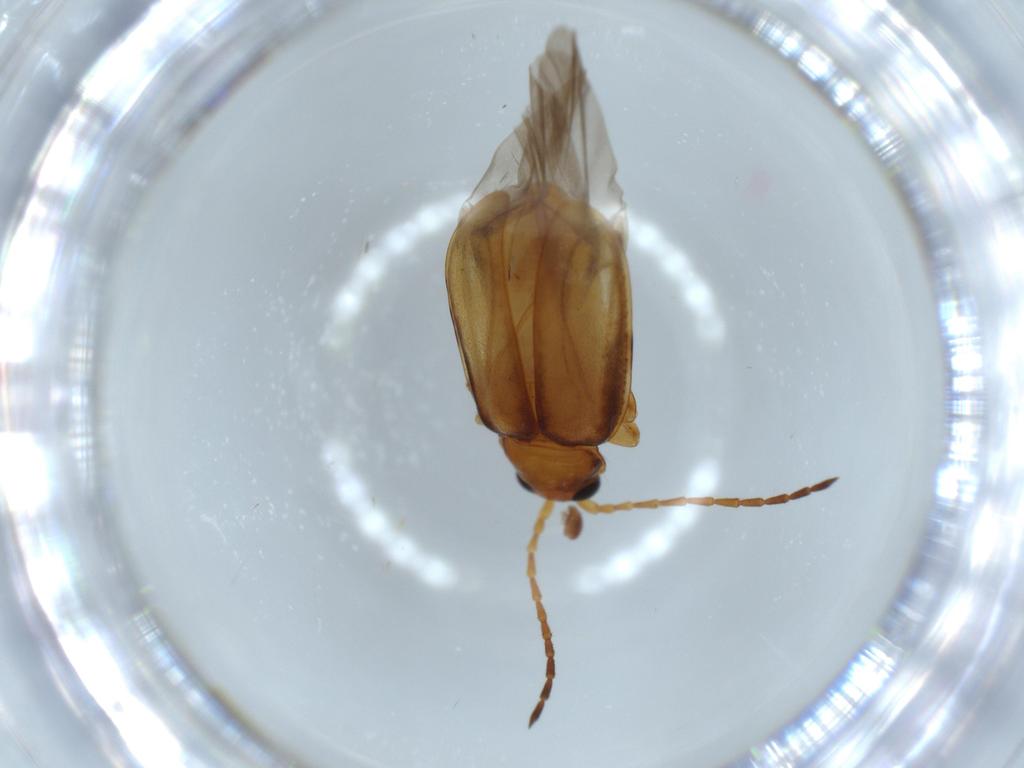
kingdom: Animalia
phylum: Arthropoda
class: Insecta
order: Coleoptera
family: Chrysomelidae
